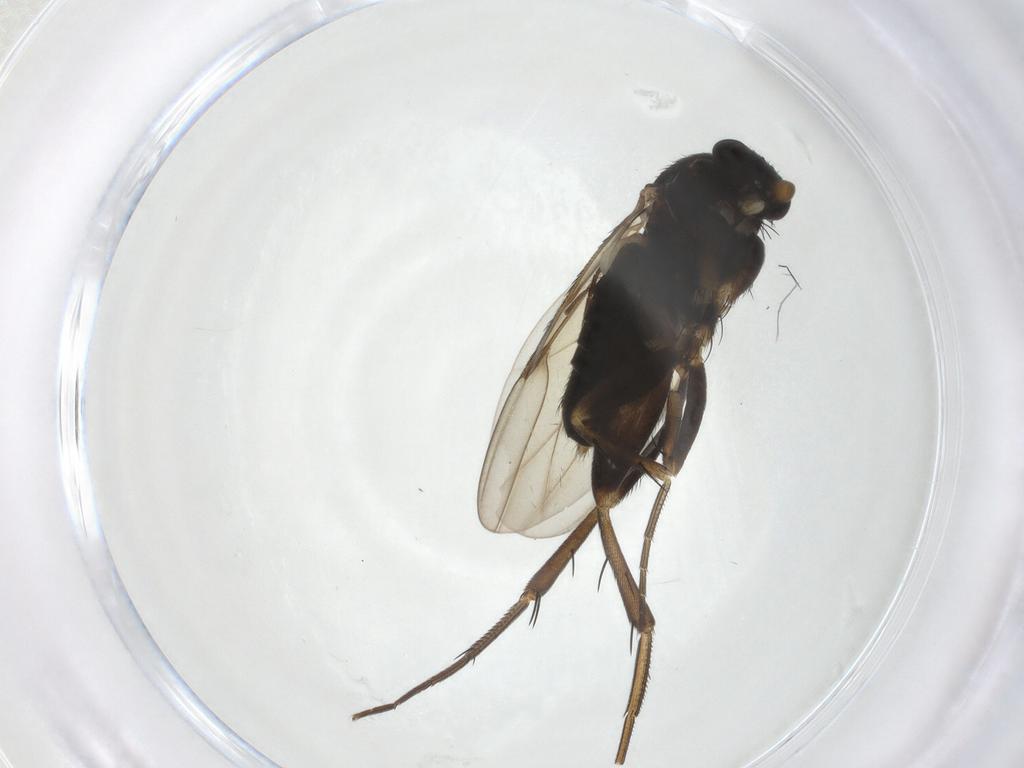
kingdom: Animalia
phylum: Arthropoda
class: Insecta
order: Diptera
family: Phoridae
